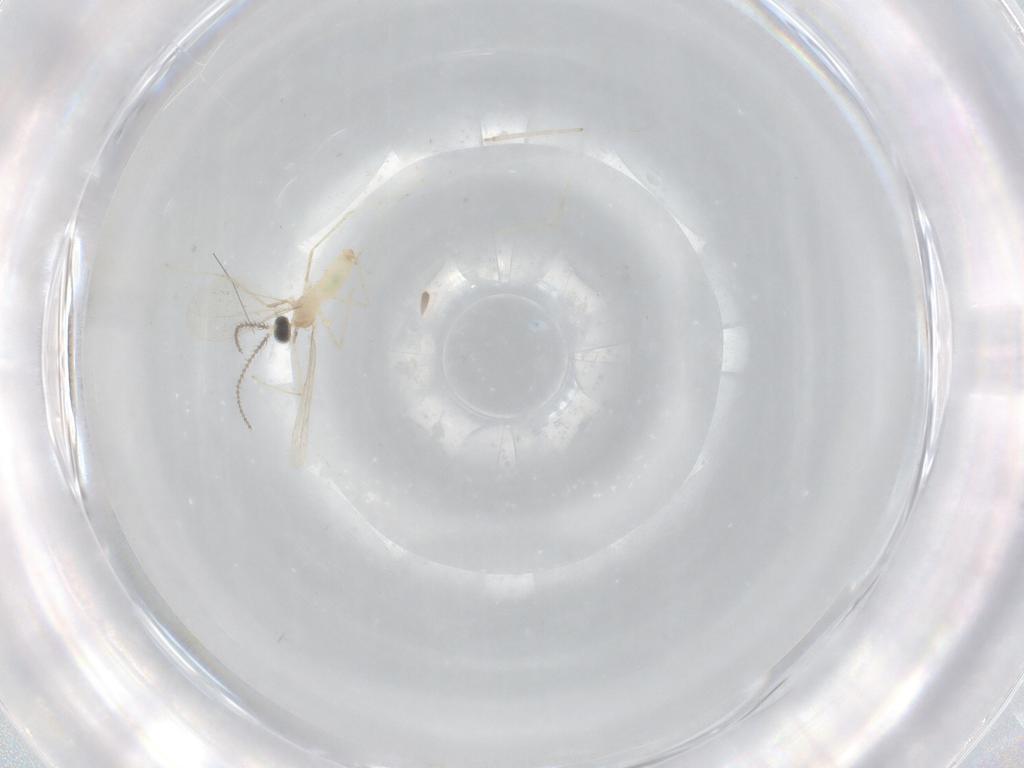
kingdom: Animalia
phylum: Arthropoda
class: Insecta
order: Diptera
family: Cecidomyiidae
